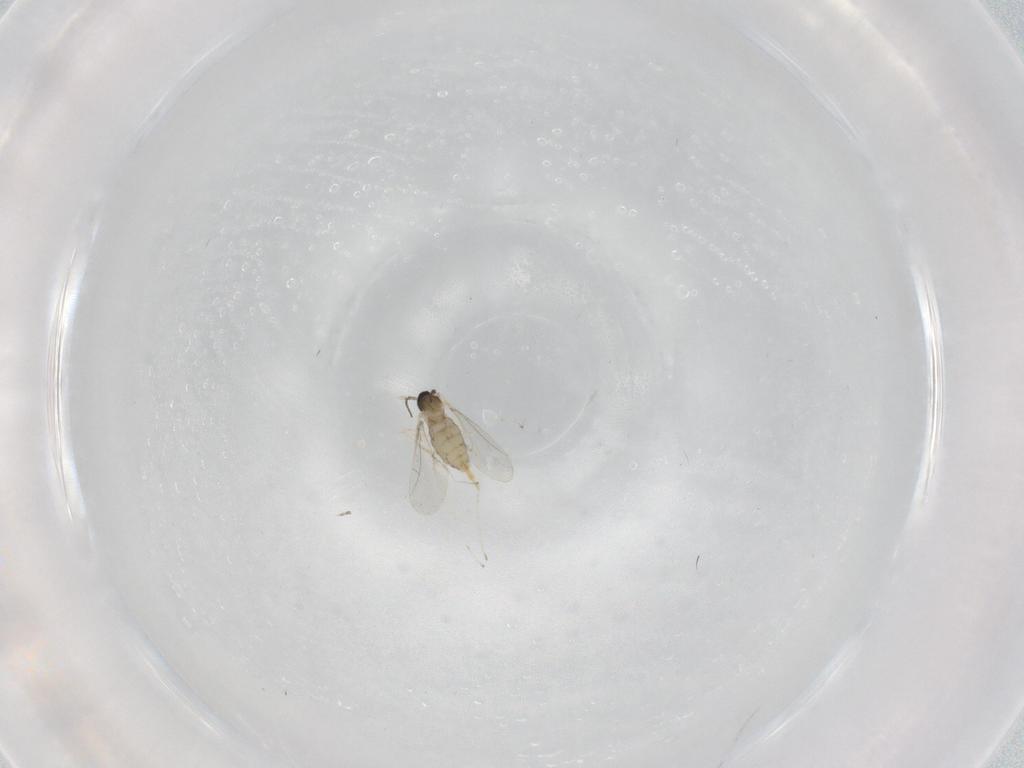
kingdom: Animalia
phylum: Arthropoda
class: Insecta
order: Diptera
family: Cecidomyiidae
